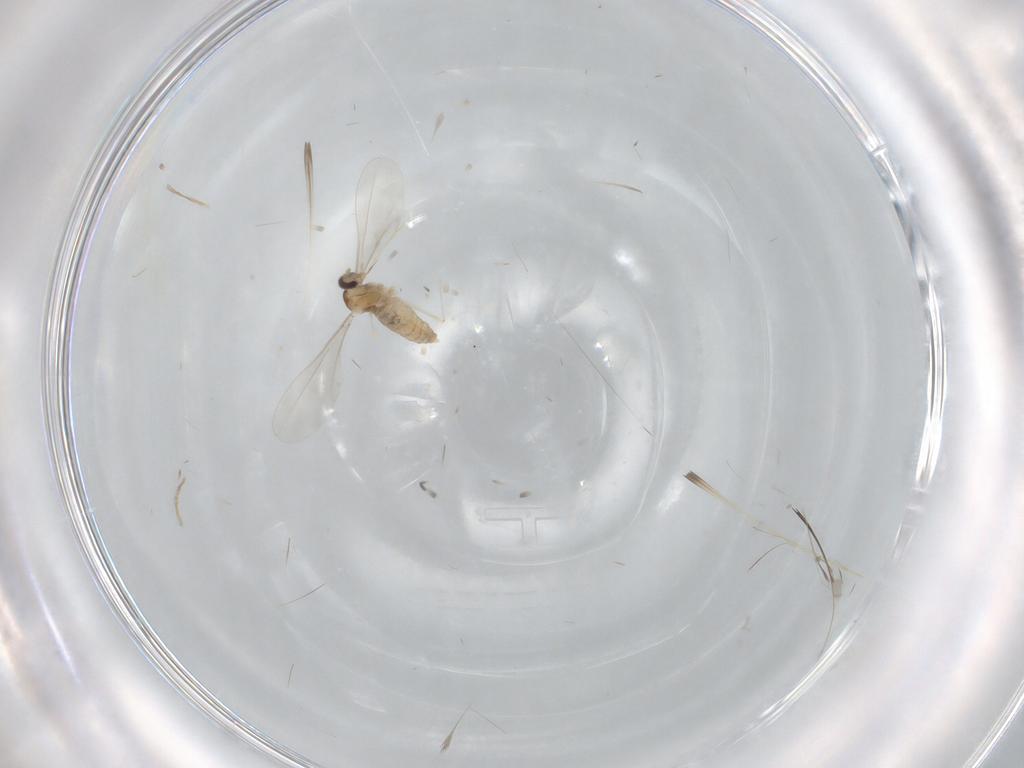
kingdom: Animalia
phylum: Arthropoda
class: Insecta
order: Diptera
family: Cecidomyiidae
